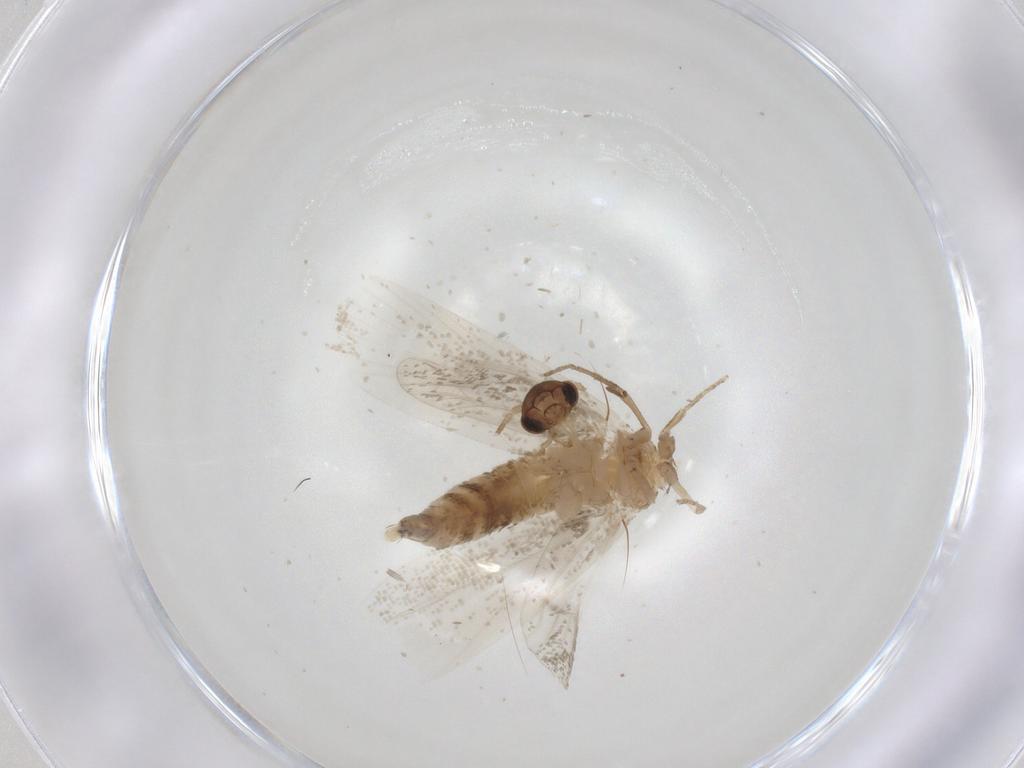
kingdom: Animalia
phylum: Arthropoda
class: Insecta
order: Lepidoptera
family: Crambidae
